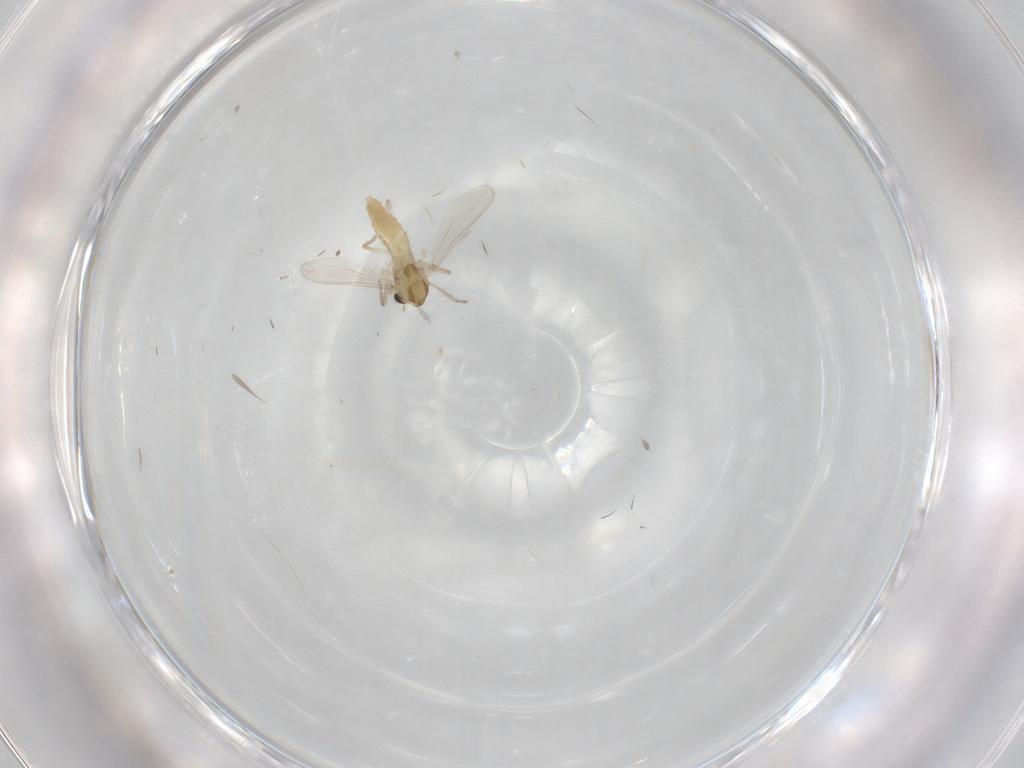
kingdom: Animalia
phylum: Arthropoda
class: Insecta
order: Diptera
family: Chironomidae
